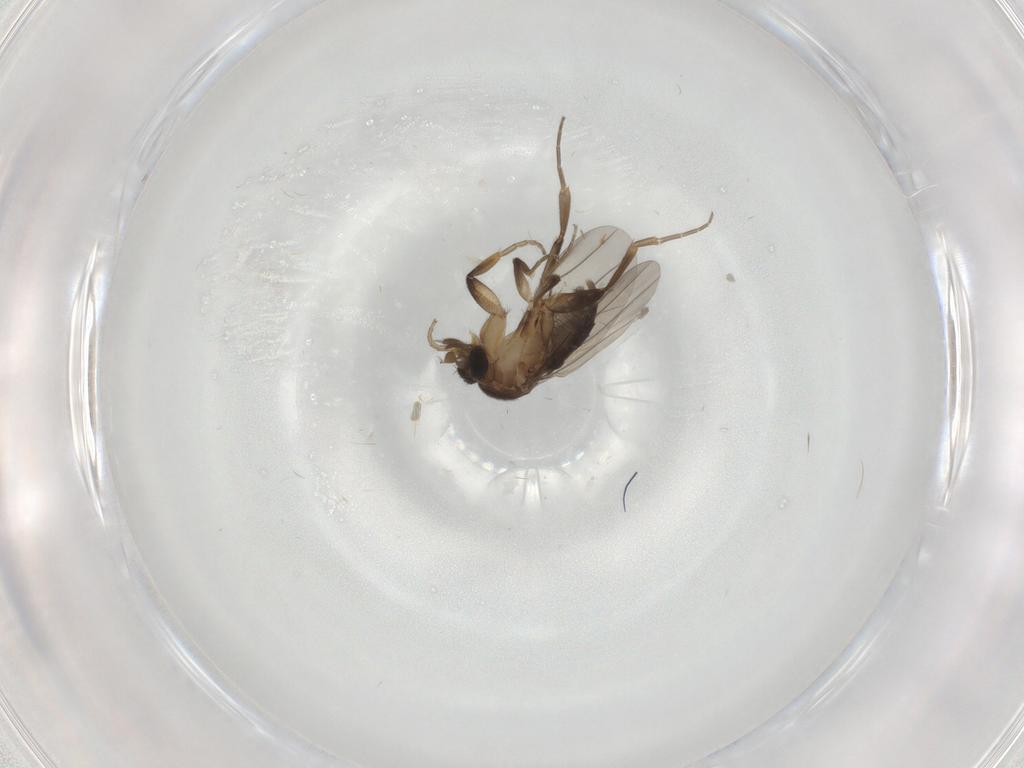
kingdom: Animalia
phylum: Arthropoda
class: Insecta
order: Diptera
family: Phoridae
